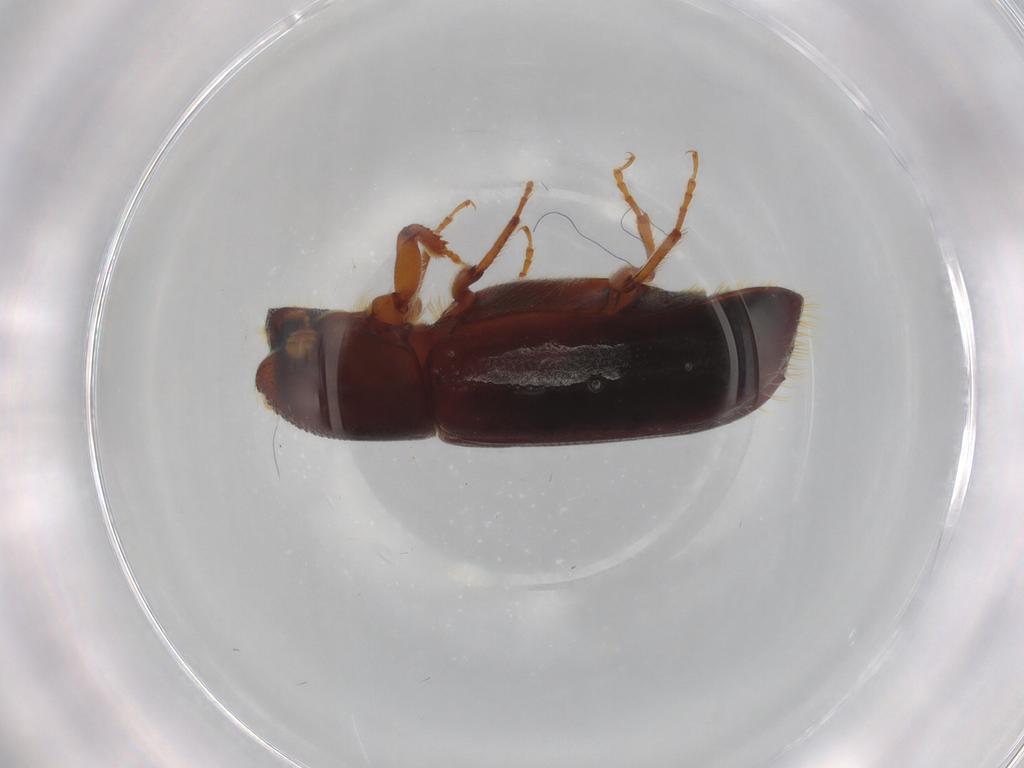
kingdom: Animalia
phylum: Arthropoda
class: Insecta
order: Coleoptera
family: Curculionidae
